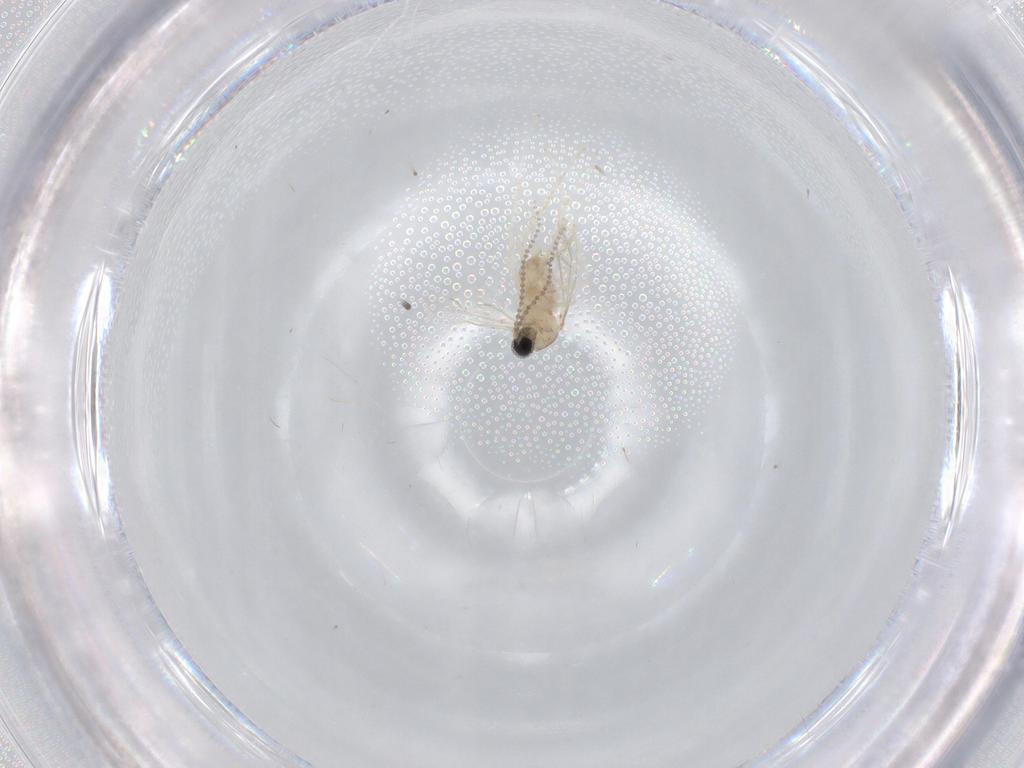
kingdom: Animalia
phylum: Arthropoda
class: Insecta
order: Diptera
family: Cecidomyiidae
